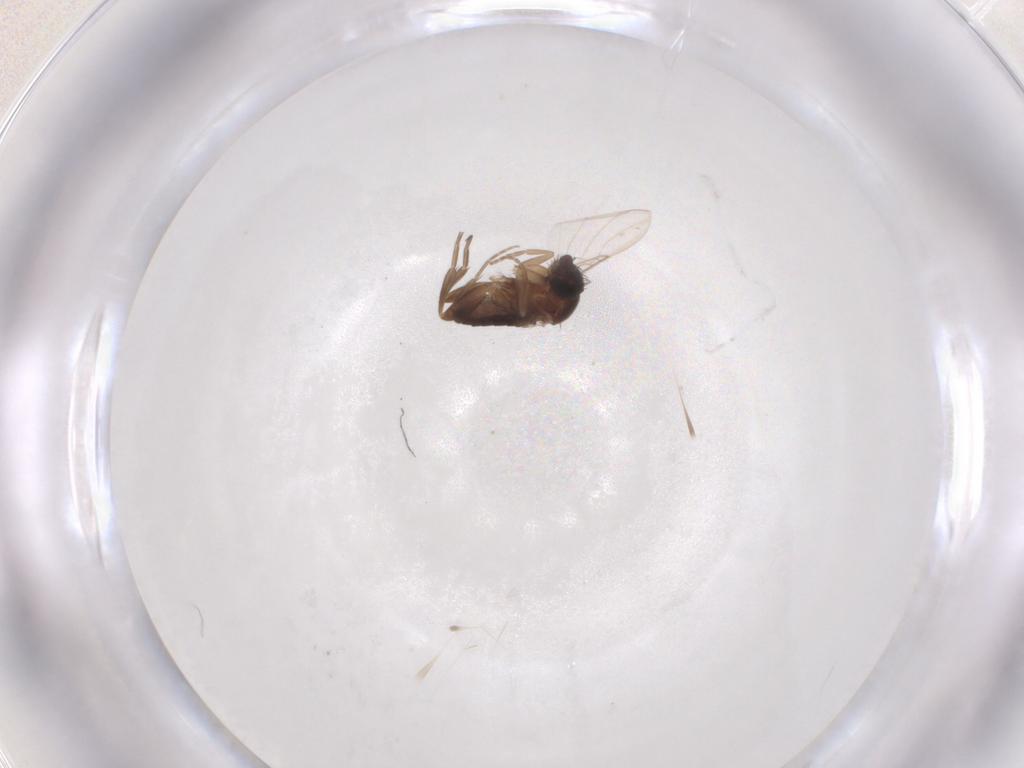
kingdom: Animalia
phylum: Arthropoda
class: Insecta
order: Diptera
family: Phoridae
